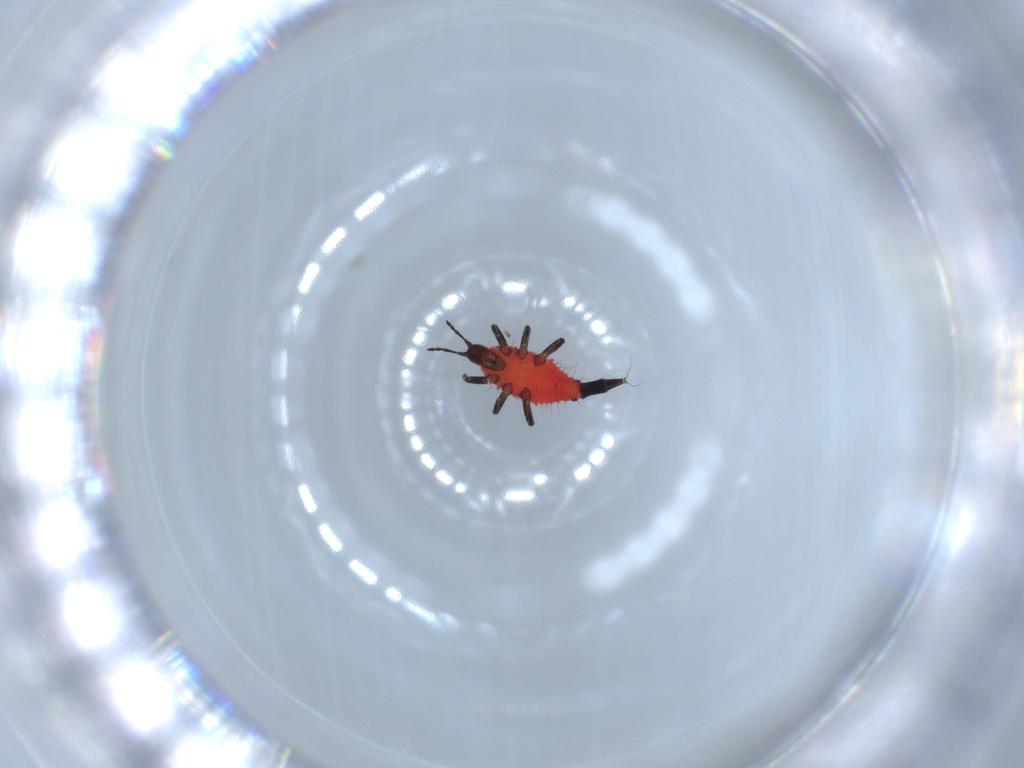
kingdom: Animalia
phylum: Arthropoda
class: Insecta
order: Thysanoptera
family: Phlaeothripidae
